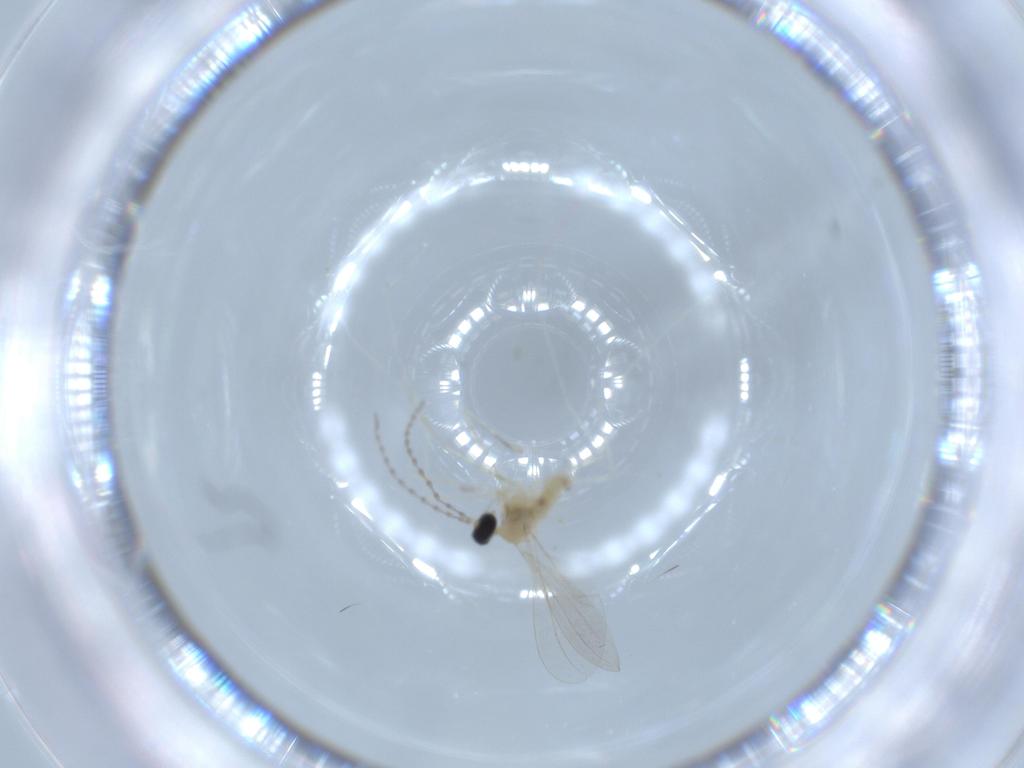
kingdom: Animalia
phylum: Arthropoda
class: Insecta
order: Diptera
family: Cecidomyiidae
